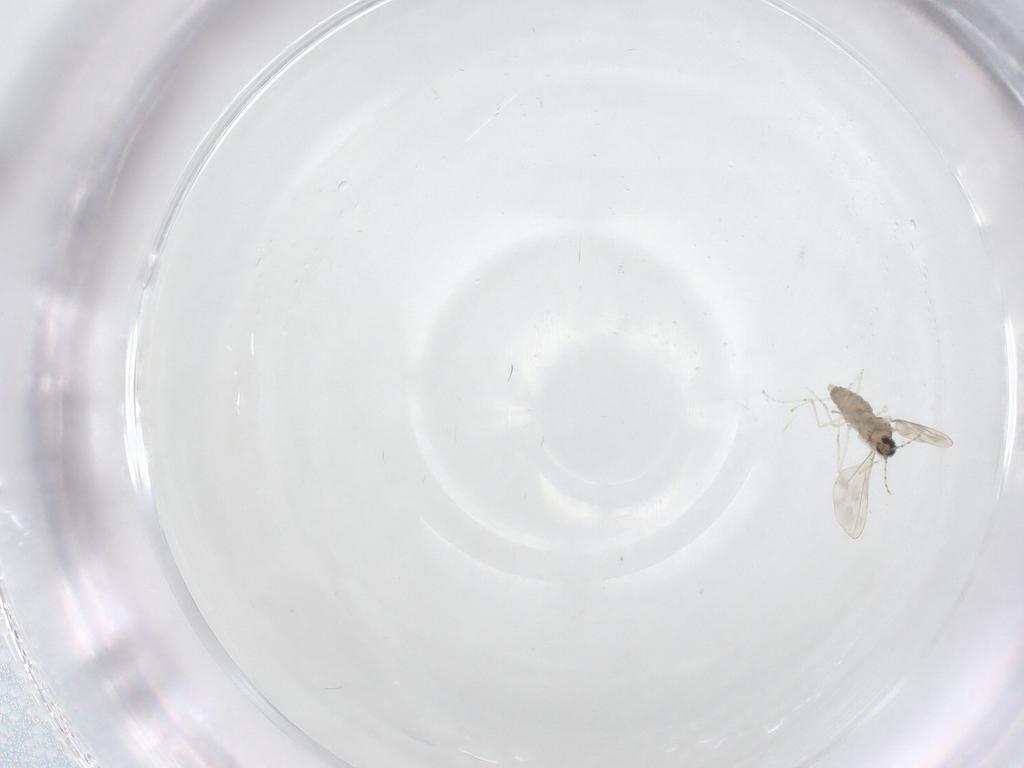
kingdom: Animalia
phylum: Arthropoda
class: Insecta
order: Diptera
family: Cecidomyiidae
